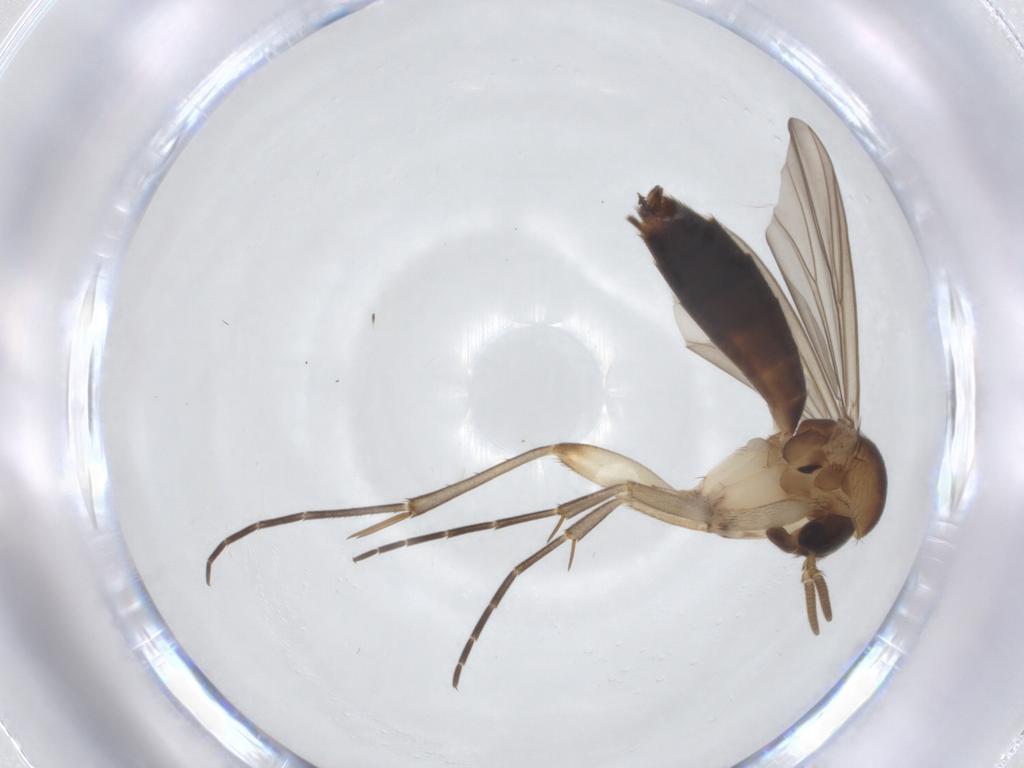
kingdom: Animalia
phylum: Arthropoda
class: Insecta
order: Diptera
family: Mycetophilidae
